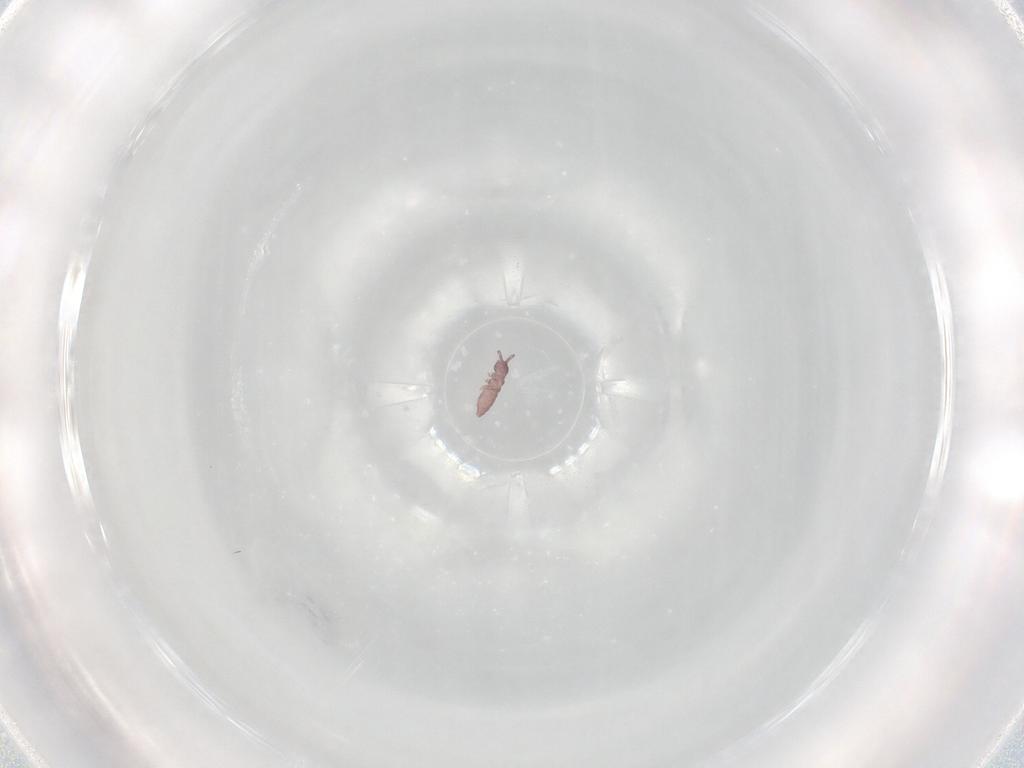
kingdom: Animalia
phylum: Arthropoda
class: Collembola
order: Poduromorpha
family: Hypogastruridae
